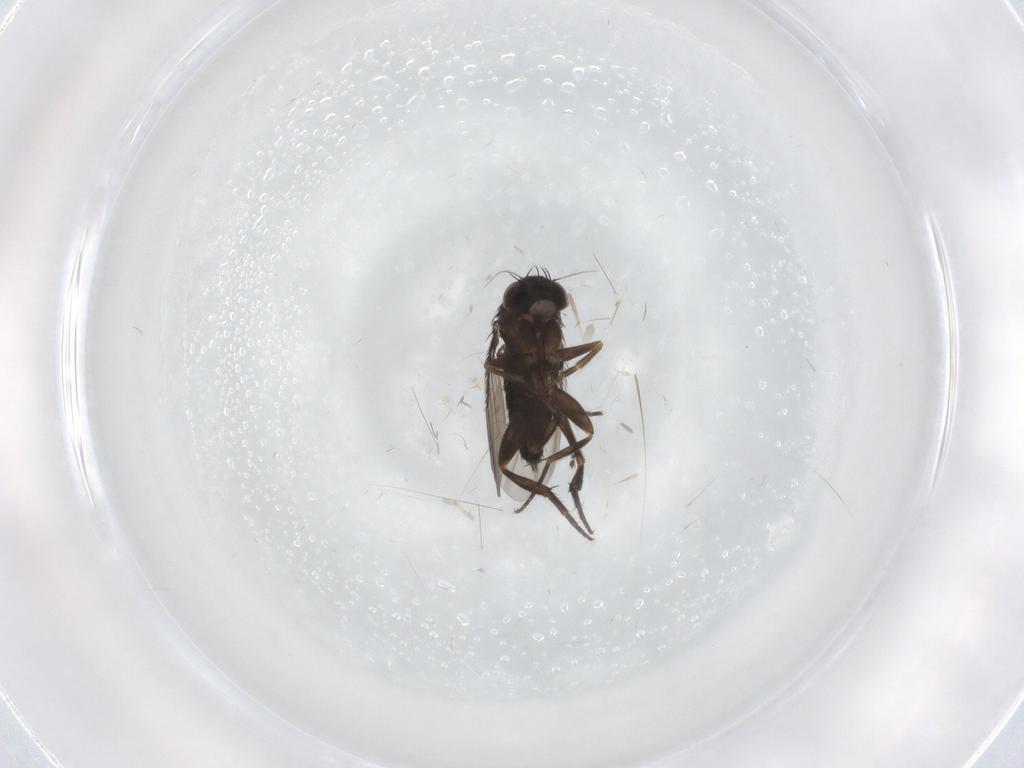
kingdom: Animalia
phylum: Arthropoda
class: Insecta
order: Diptera
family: Phoridae
